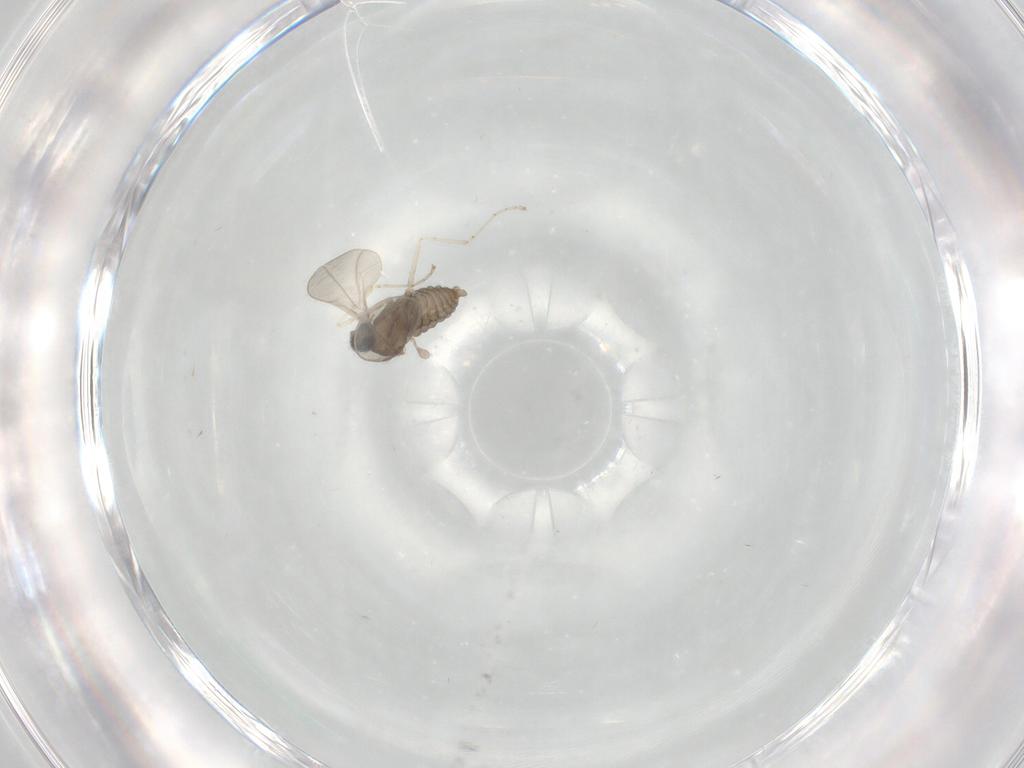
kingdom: Animalia
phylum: Arthropoda
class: Insecta
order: Diptera
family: Cecidomyiidae
